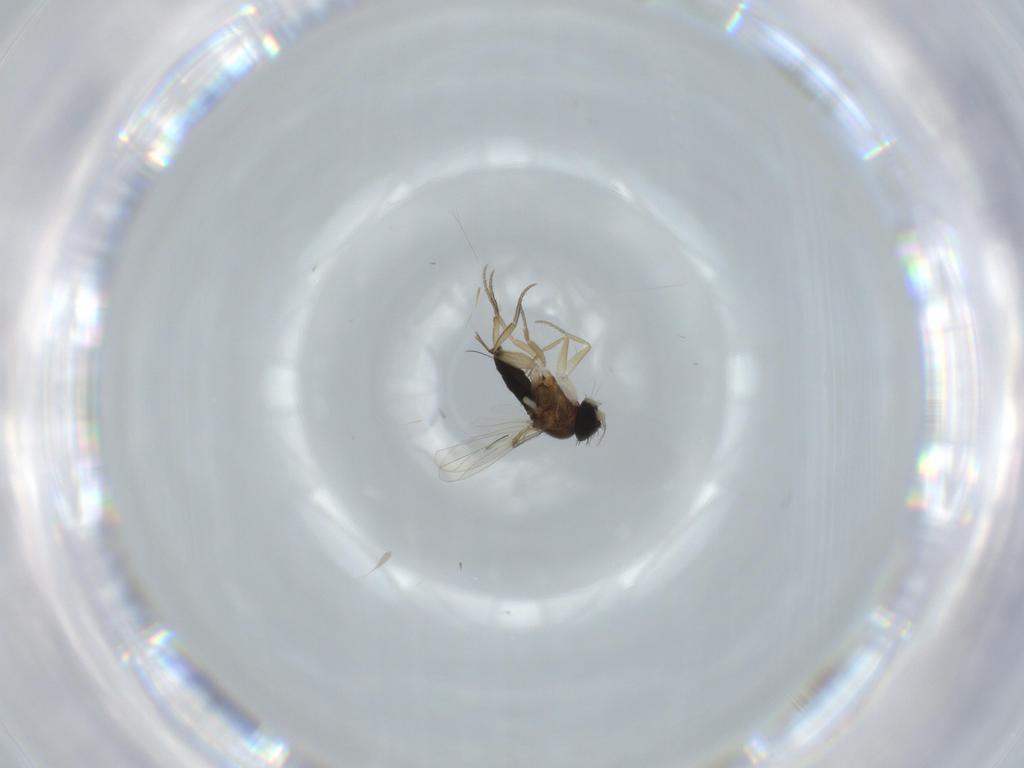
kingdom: Animalia
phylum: Arthropoda
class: Insecta
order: Diptera
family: Phoridae
